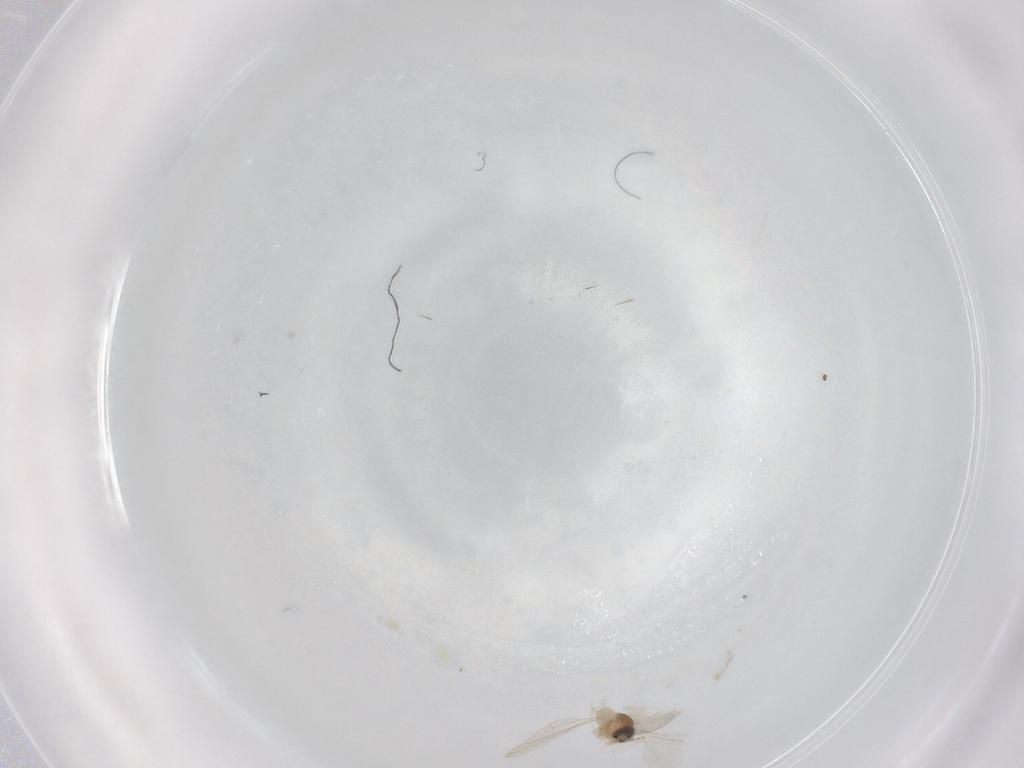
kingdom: Animalia
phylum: Arthropoda
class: Insecta
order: Diptera
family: Cecidomyiidae
